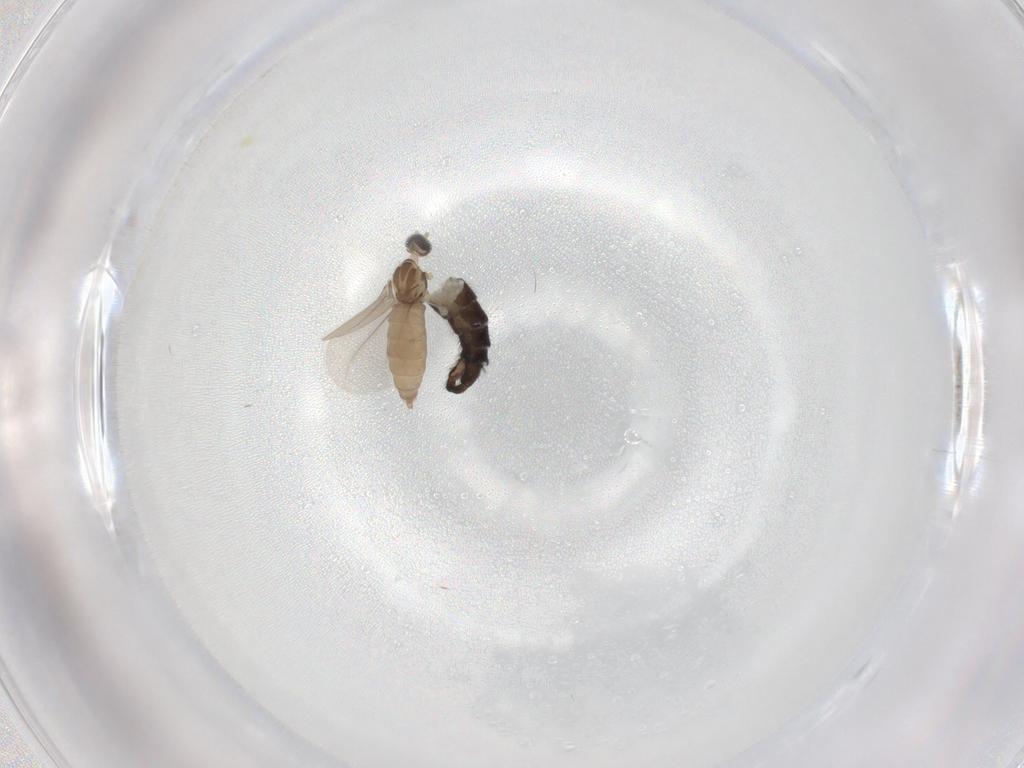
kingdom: Animalia
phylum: Arthropoda
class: Insecta
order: Diptera
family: Sciaridae
